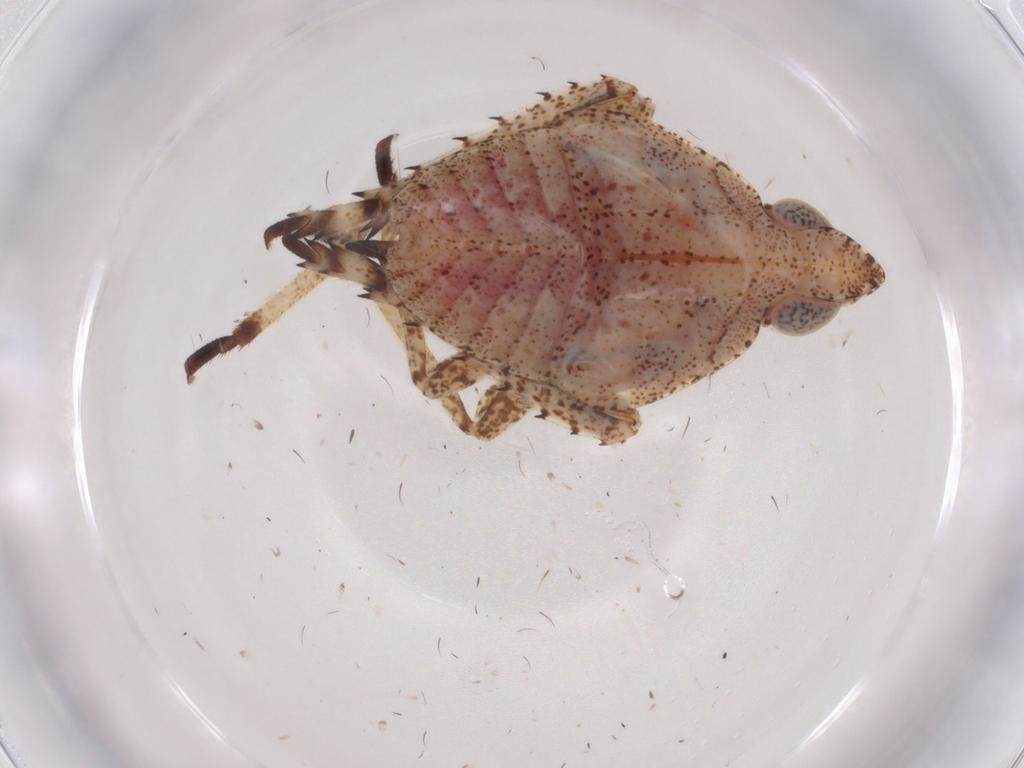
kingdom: Animalia
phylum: Arthropoda
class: Insecta
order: Hemiptera
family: Dictyopharidae
